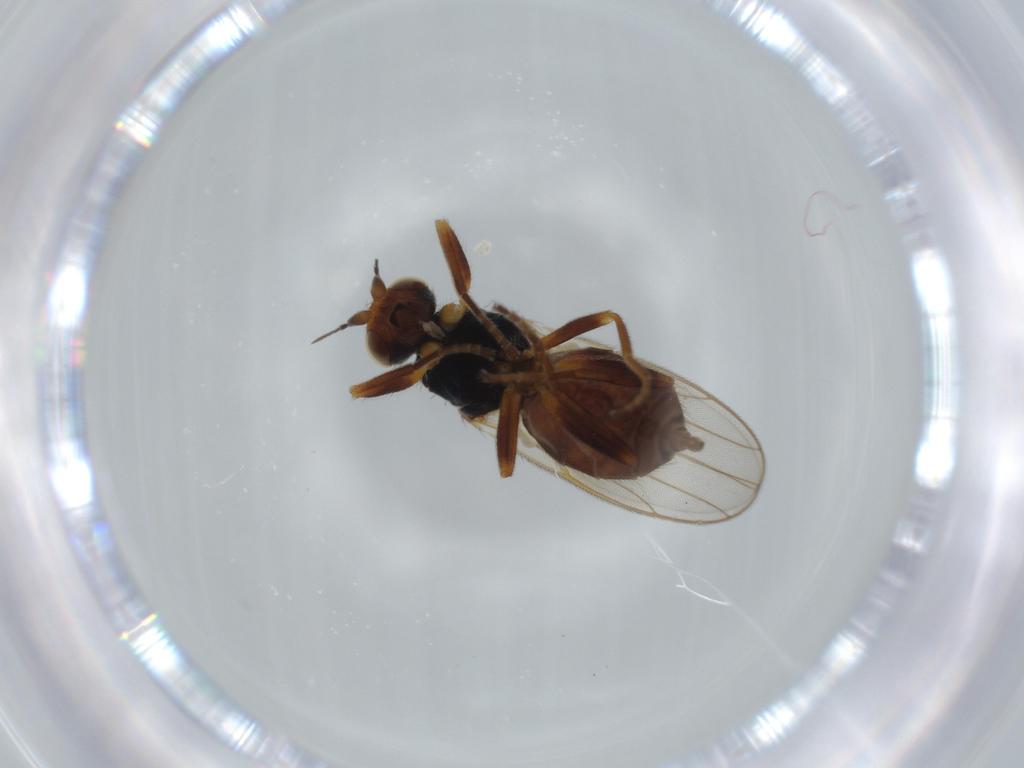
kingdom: Animalia
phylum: Arthropoda
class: Insecta
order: Diptera
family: Chloropidae
